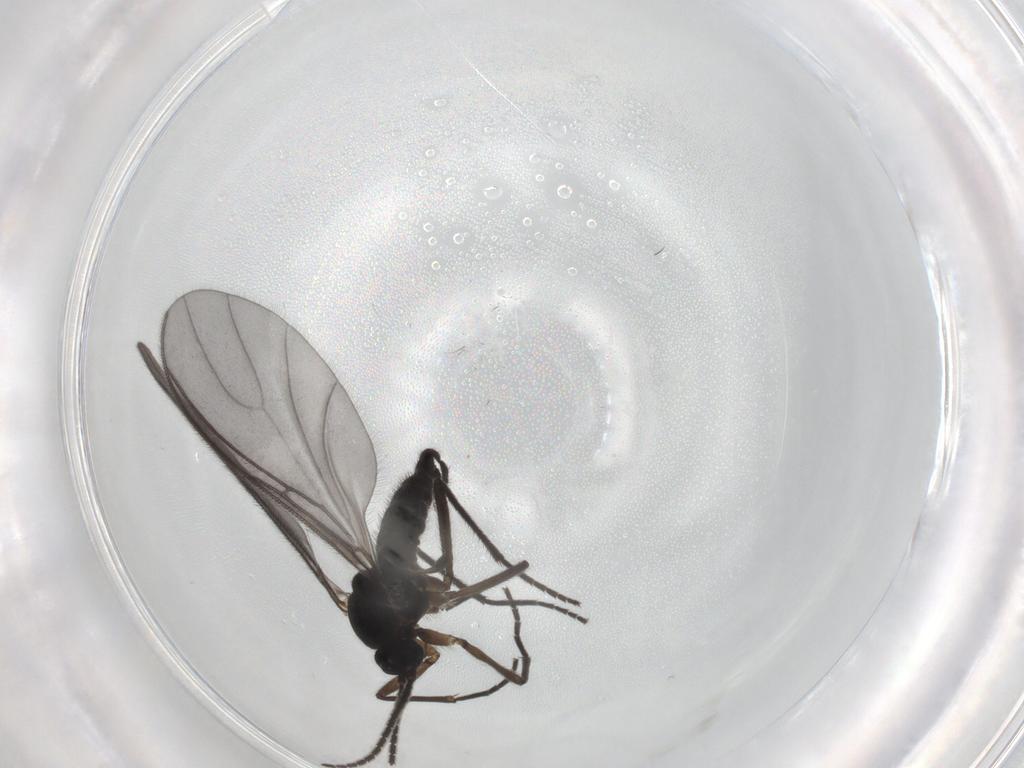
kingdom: Animalia
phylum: Arthropoda
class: Insecta
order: Diptera
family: Sciaridae
